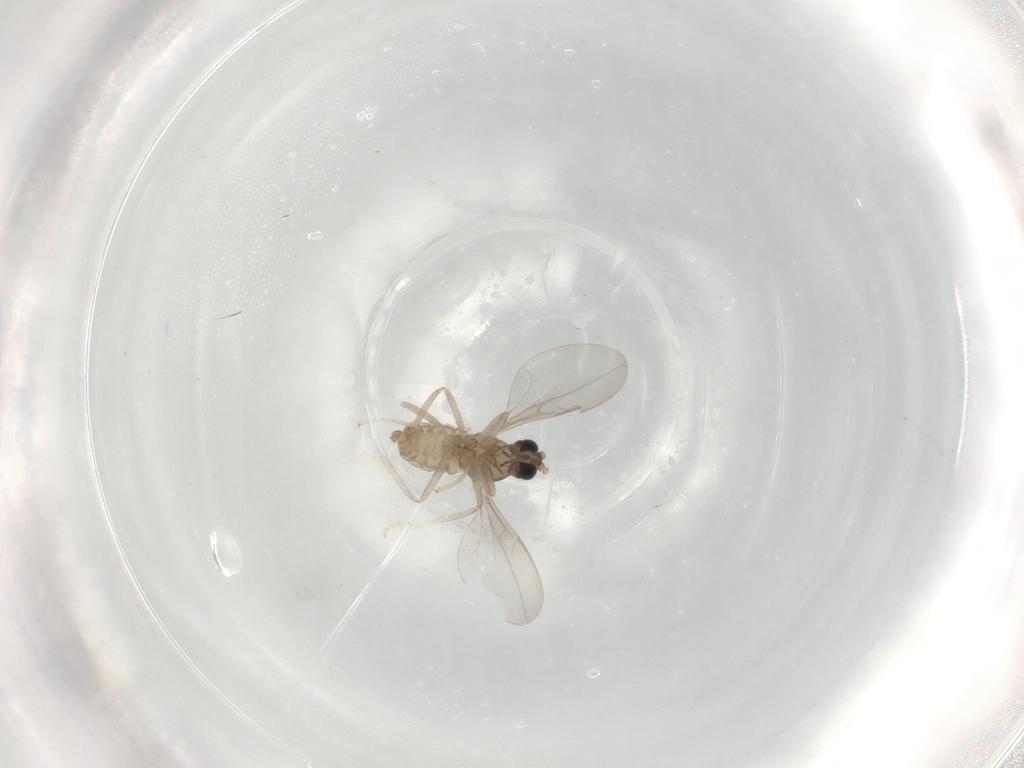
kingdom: Animalia
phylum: Arthropoda
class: Insecta
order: Diptera
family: Cecidomyiidae
